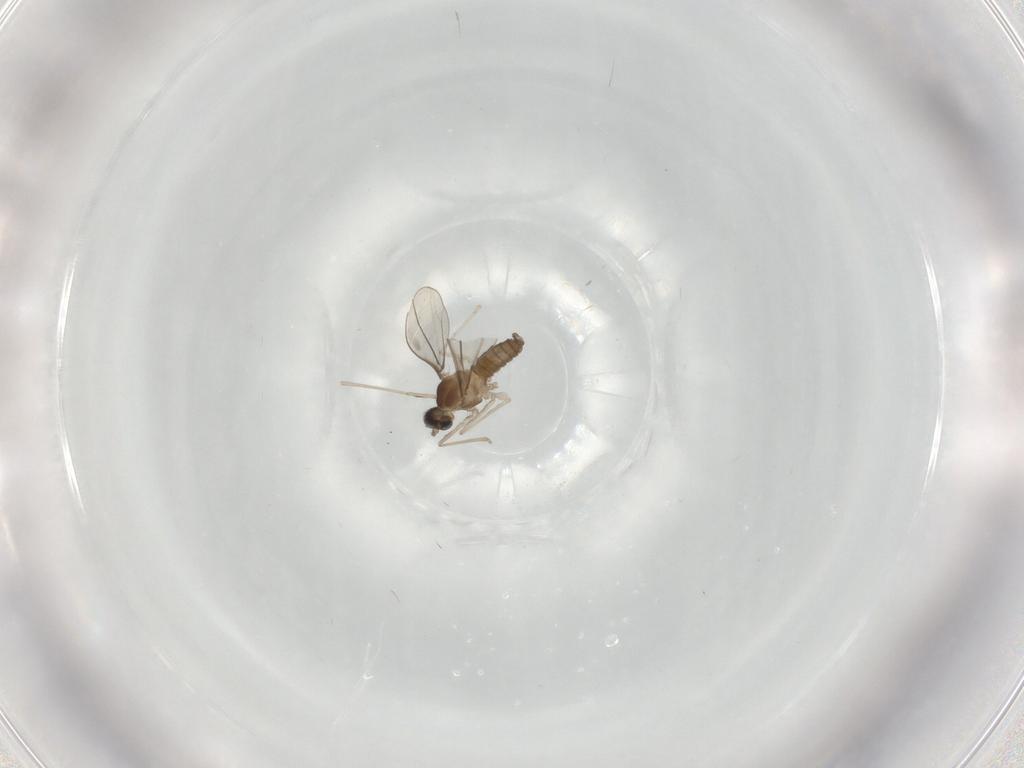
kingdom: Animalia
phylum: Arthropoda
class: Insecta
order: Diptera
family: Cecidomyiidae
